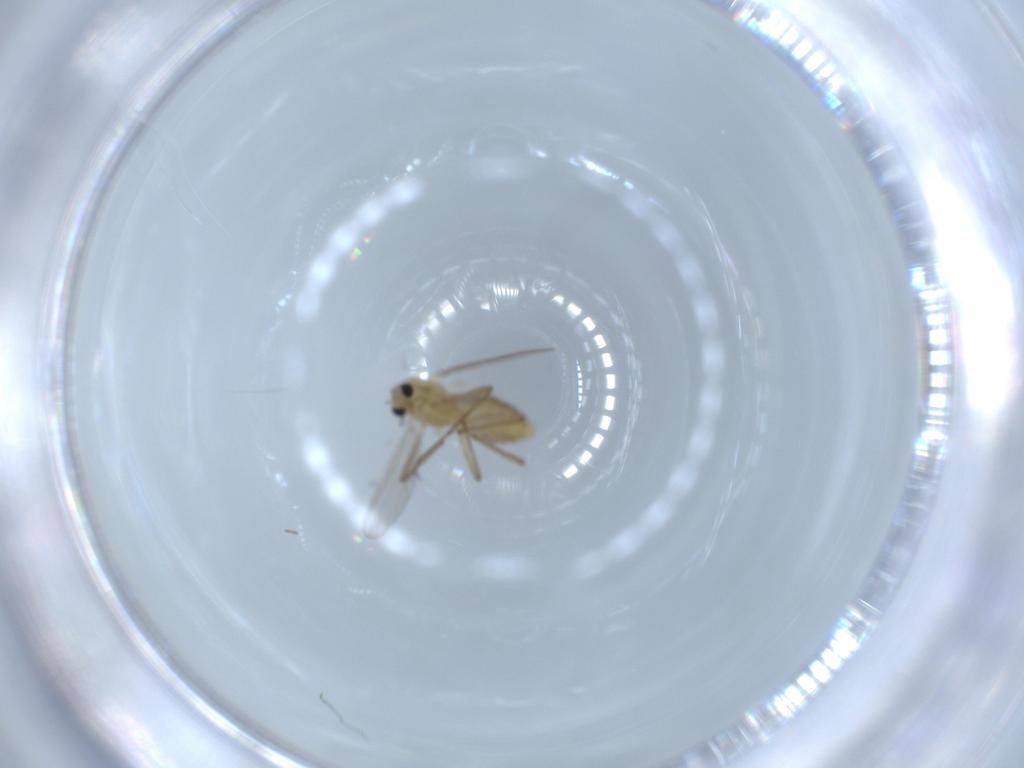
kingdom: Animalia
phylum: Arthropoda
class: Insecta
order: Diptera
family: Chironomidae
